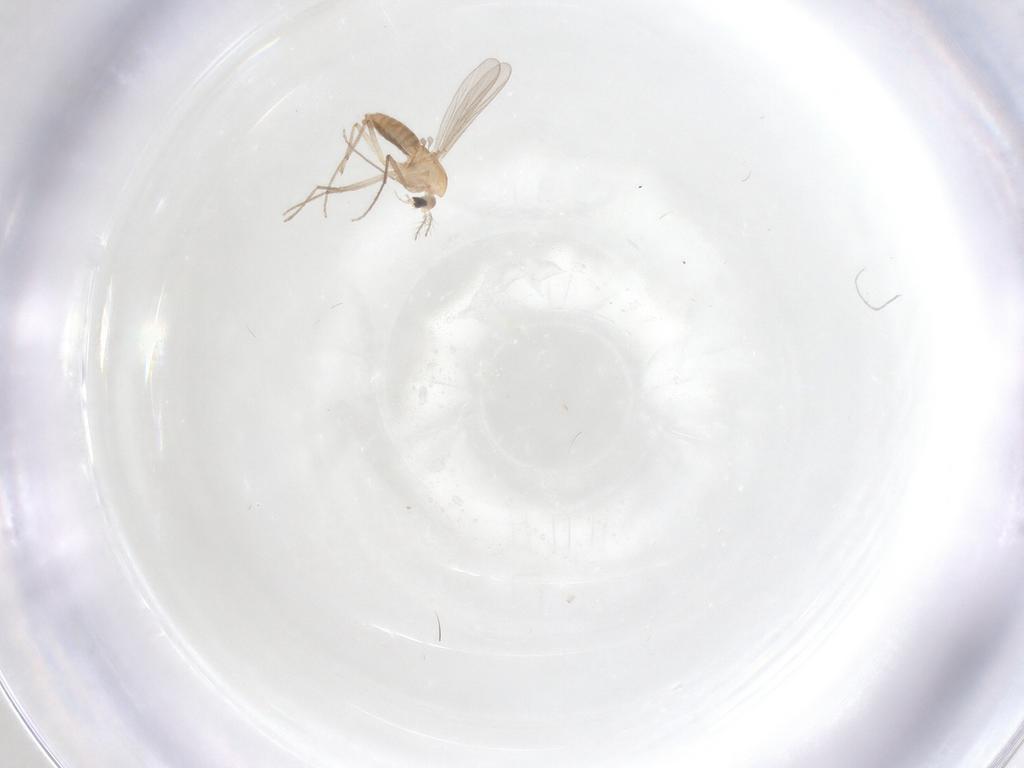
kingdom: Animalia
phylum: Arthropoda
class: Insecta
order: Diptera
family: Chironomidae
